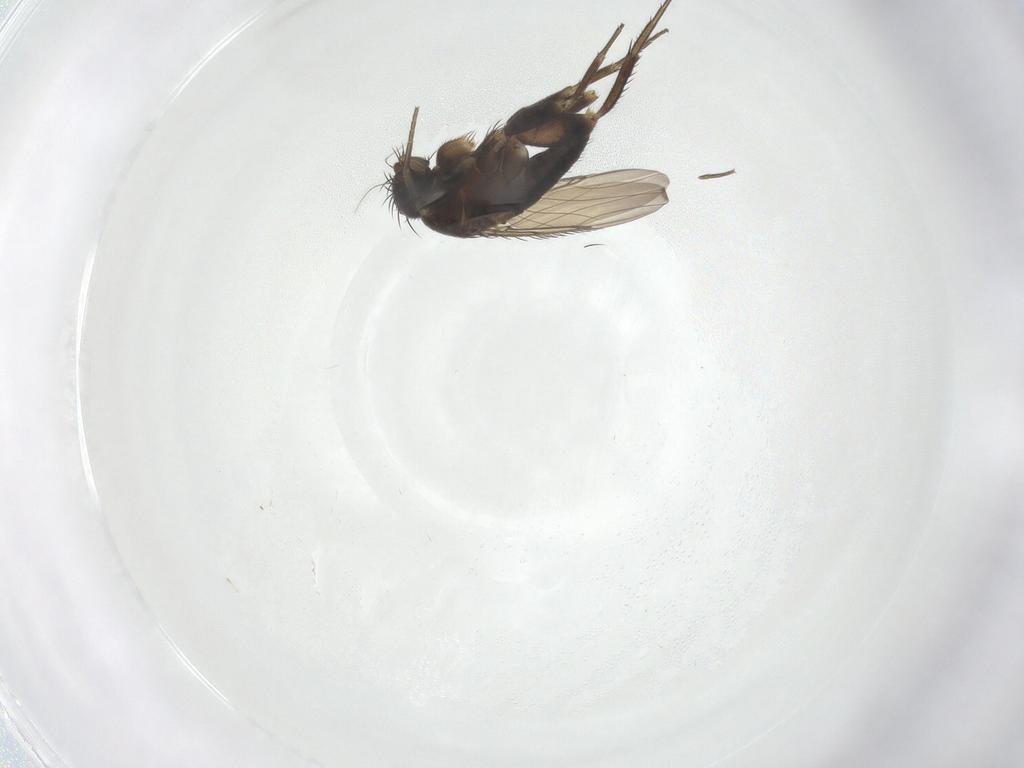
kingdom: Animalia
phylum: Arthropoda
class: Insecta
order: Diptera
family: Phoridae
